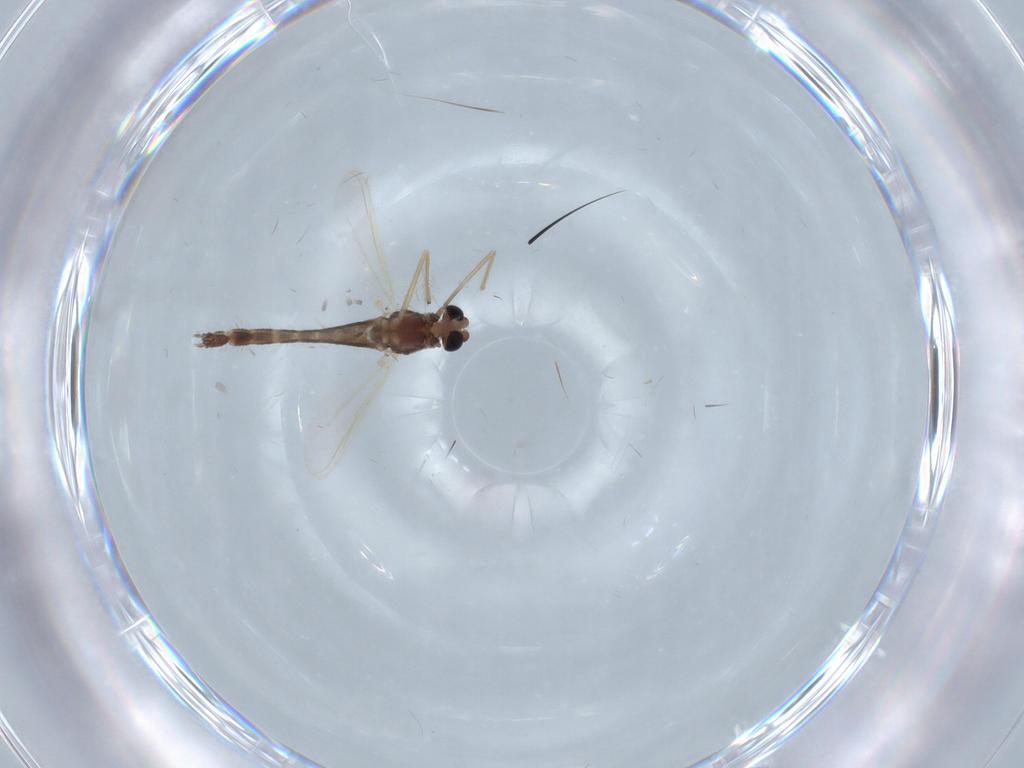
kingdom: Animalia
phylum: Arthropoda
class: Insecta
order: Diptera
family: Chironomidae
